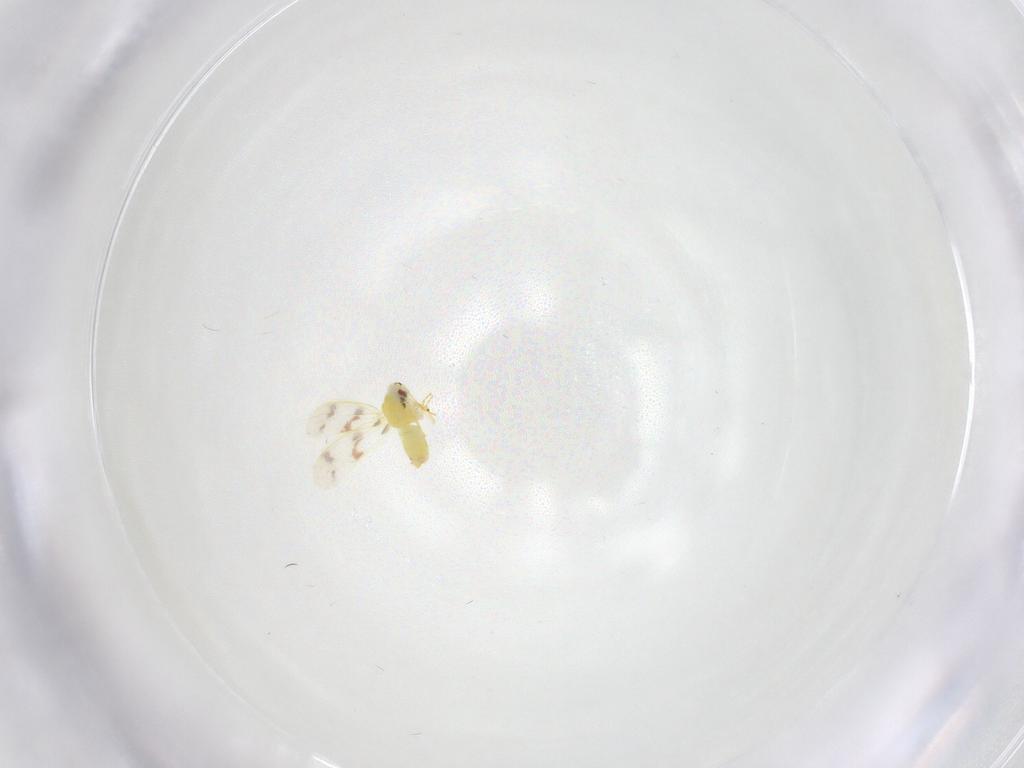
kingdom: Animalia
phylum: Arthropoda
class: Insecta
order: Hemiptera
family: Aleyrodidae
